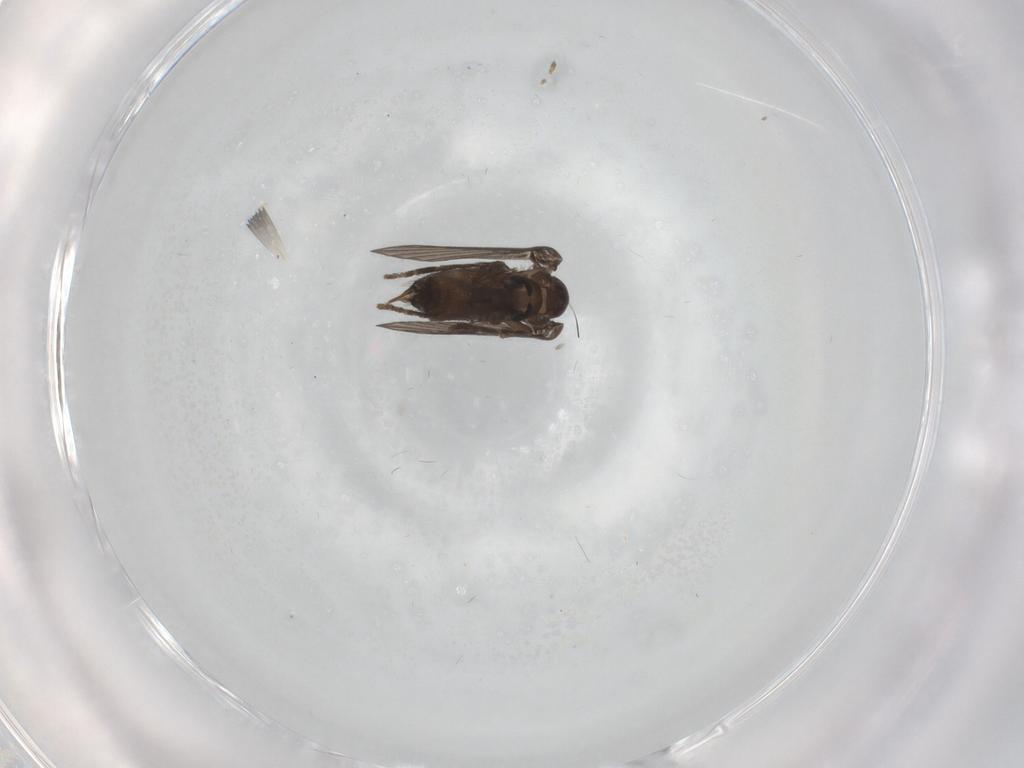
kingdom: Animalia
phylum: Arthropoda
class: Insecta
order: Diptera
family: Psychodidae
